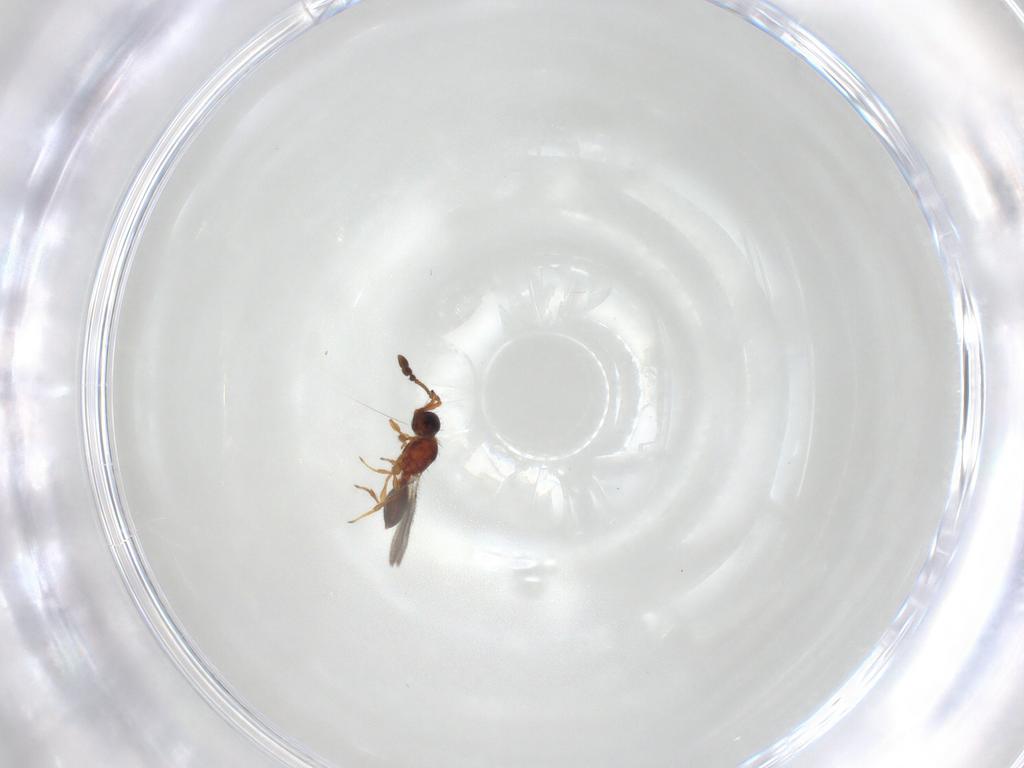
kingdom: Animalia
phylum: Arthropoda
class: Insecta
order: Hymenoptera
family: Diapriidae
